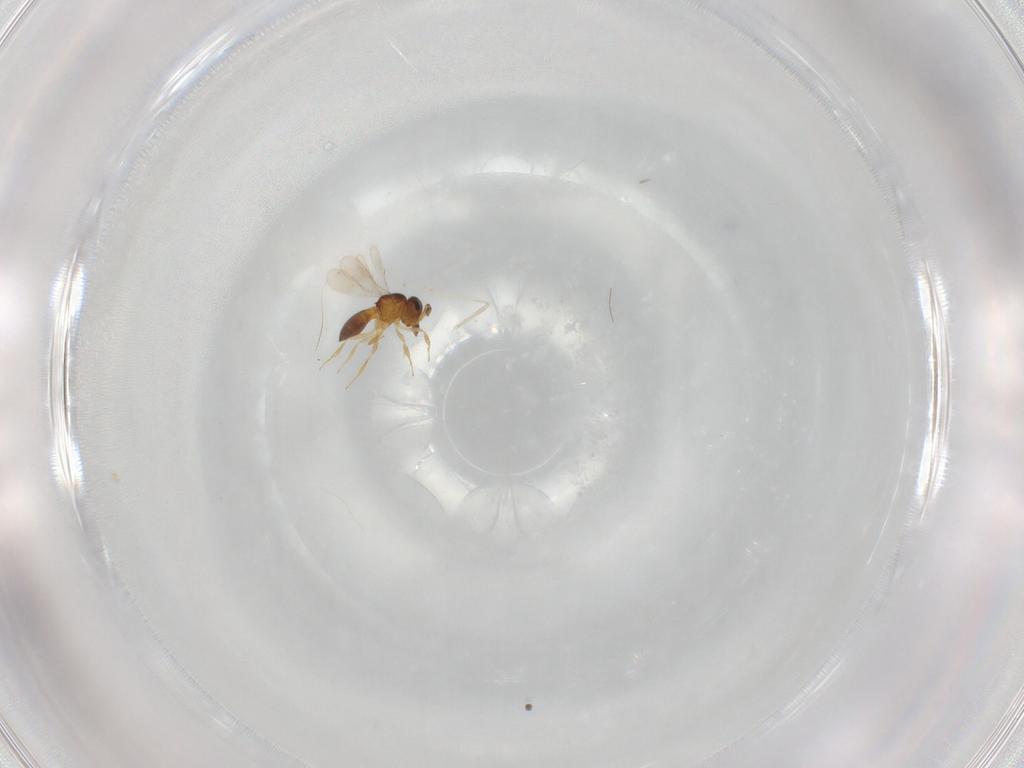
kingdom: Animalia
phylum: Arthropoda
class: Insecta
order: Hymenoptera
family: Scelionidae
